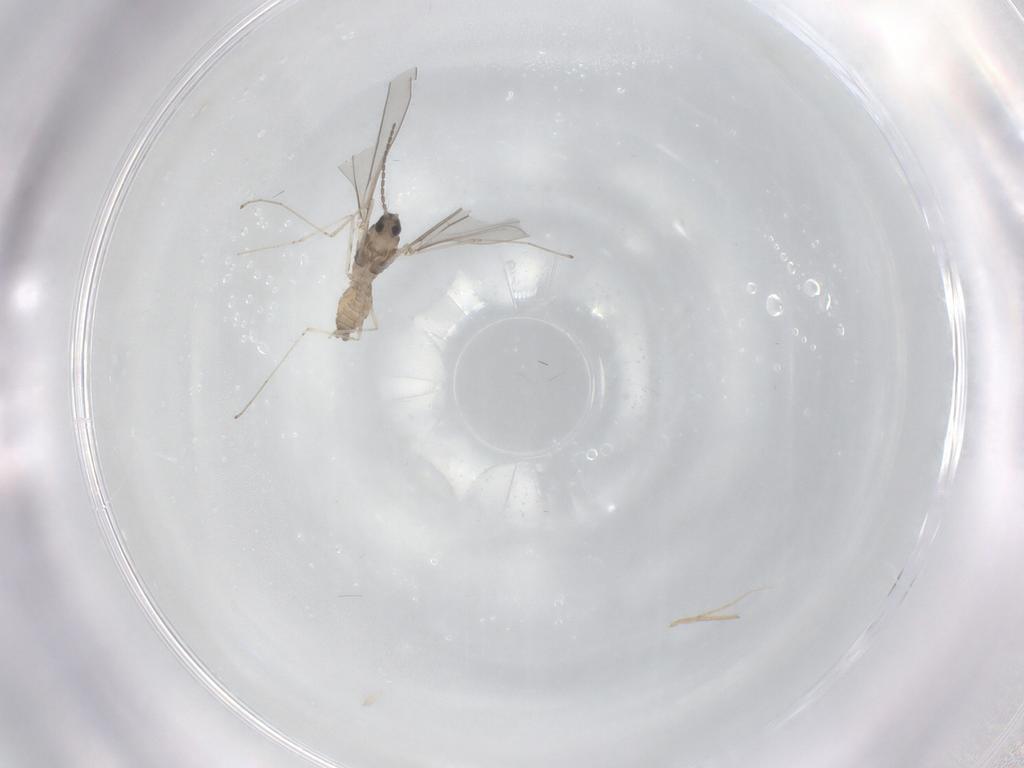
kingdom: Animalia
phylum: Arthropoda
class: Insecta
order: Diptera
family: Cecidomyiidae
